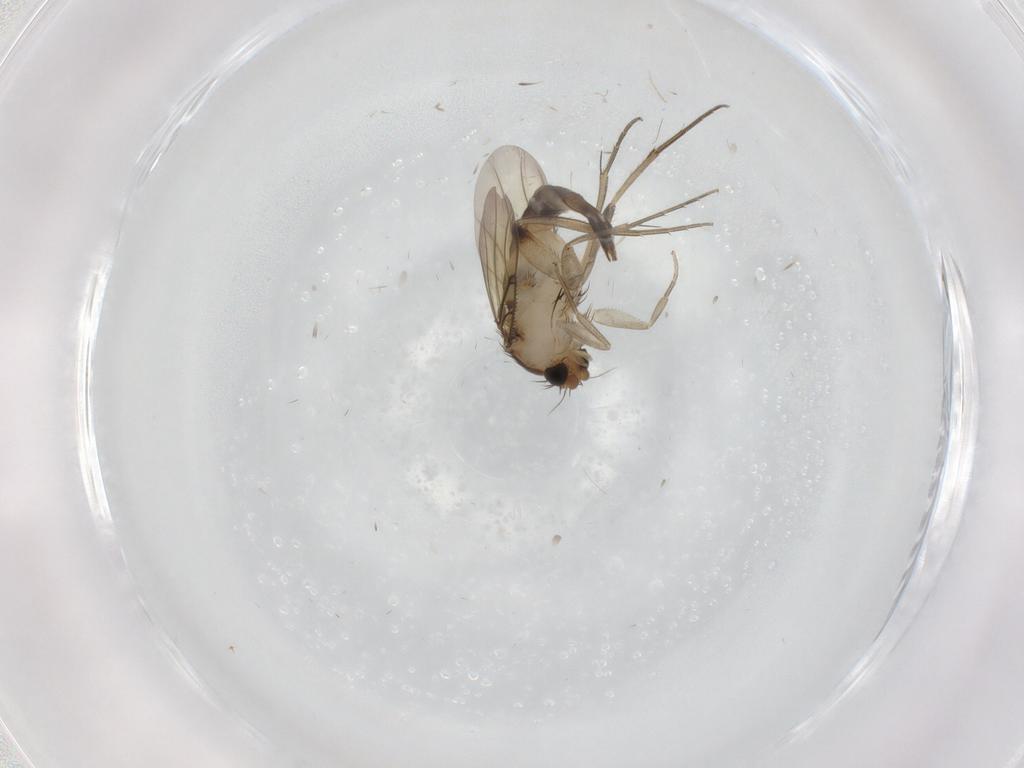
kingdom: Animalia
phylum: Arthropoda
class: Insecta
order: Diptera
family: Phoridae
